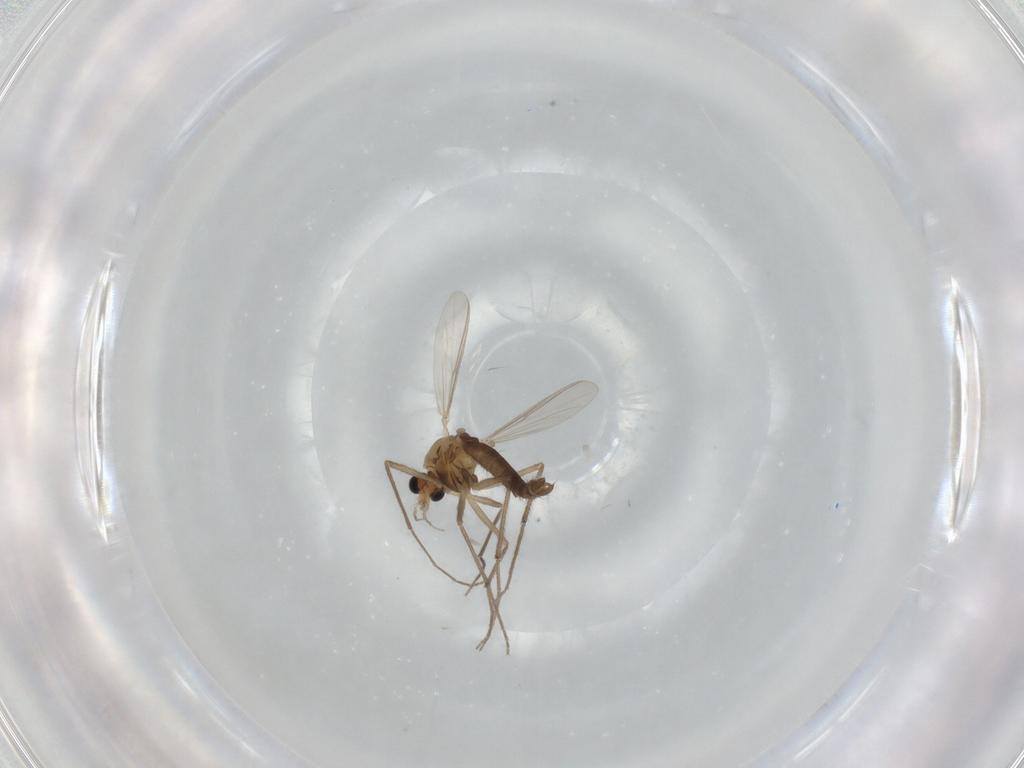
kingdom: Animalia
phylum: Arthropoda
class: Insecta
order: Diptera
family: Chironomidae
